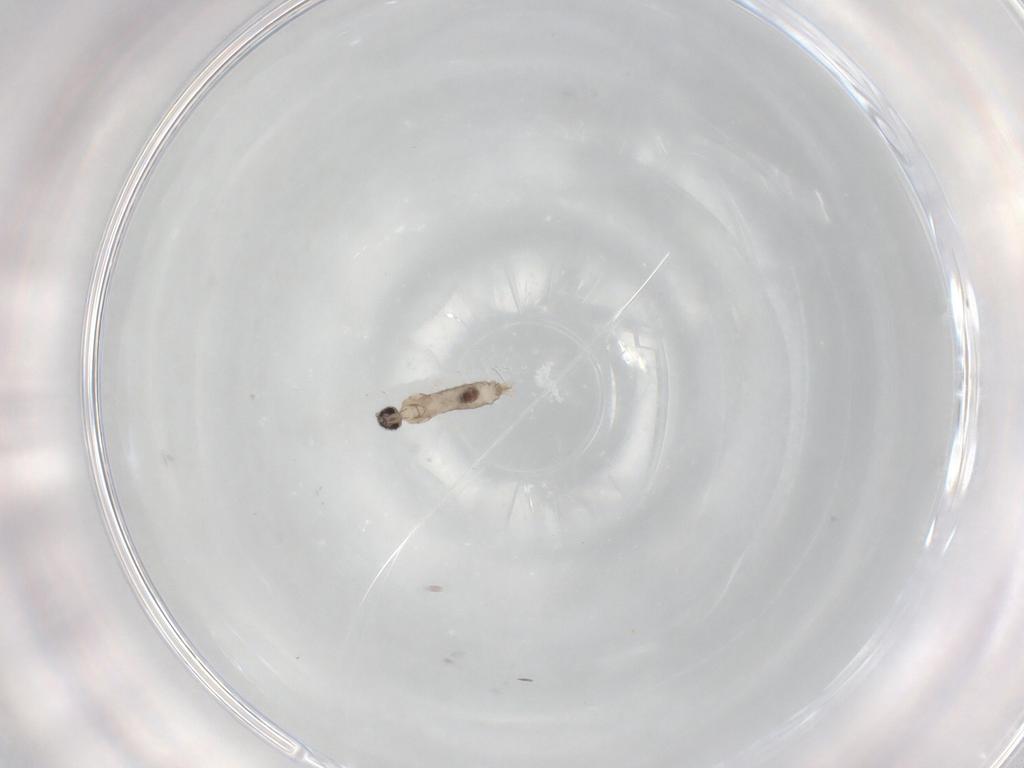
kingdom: Animalia
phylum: Arthropoda
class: Insecta
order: Diptera
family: Cecidomyiidae
